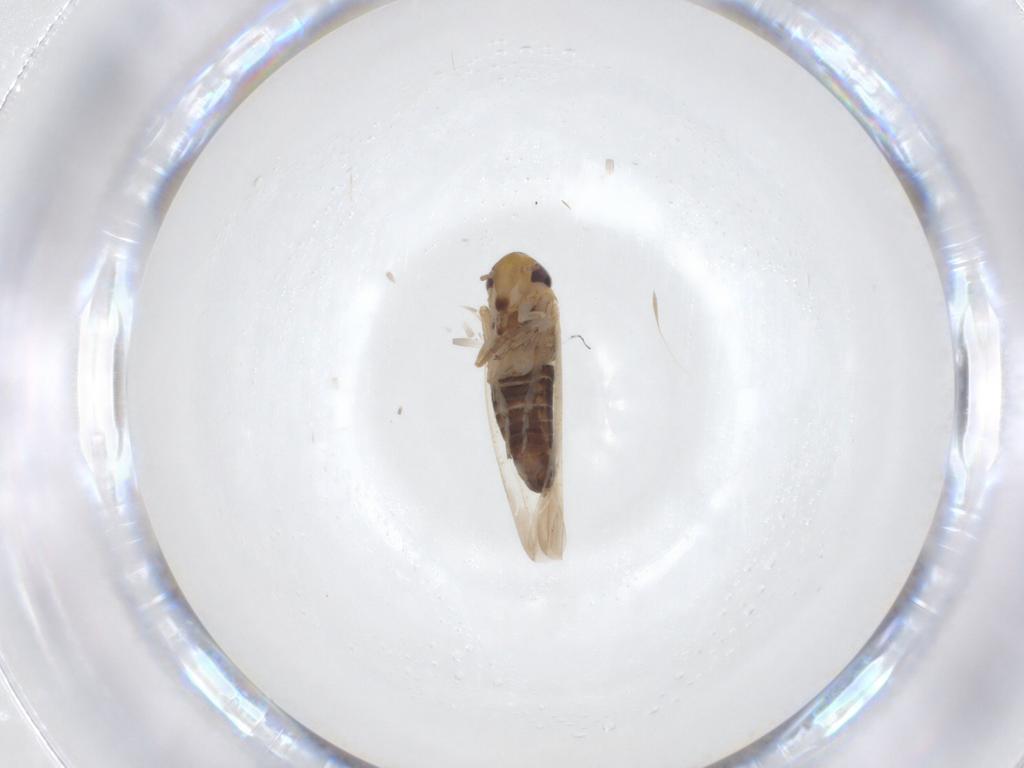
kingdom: Animalia
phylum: Arthropoda
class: Insecta
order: Hemiptera
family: Cicadellidae
